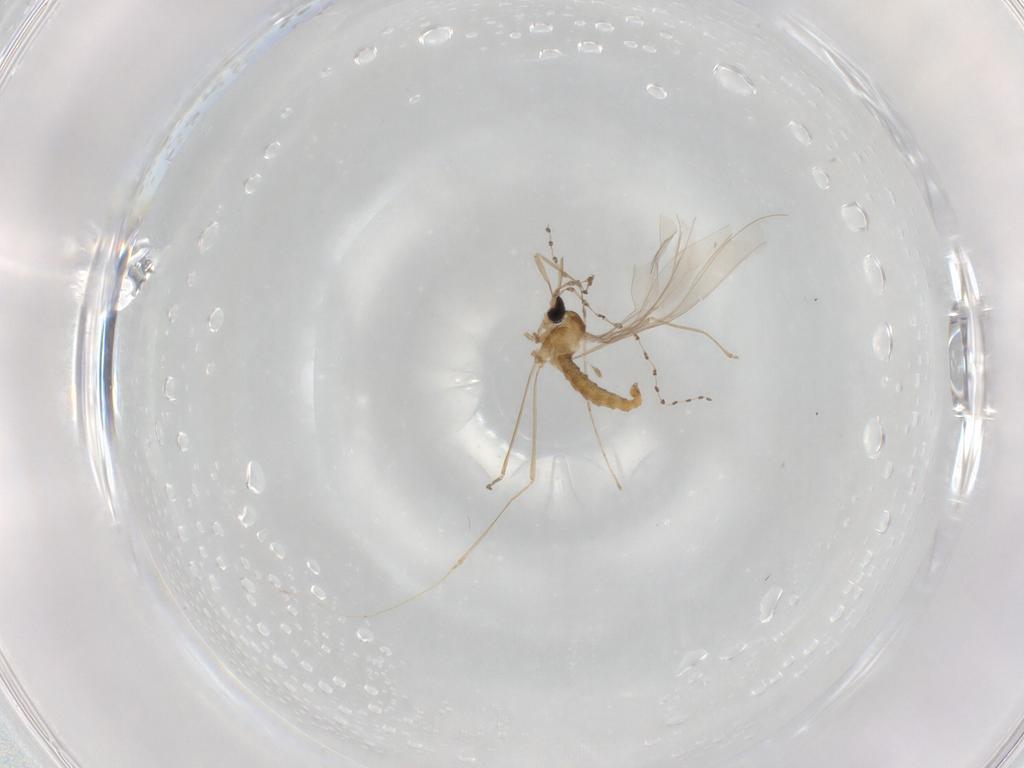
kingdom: Animalia
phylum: Arthropoda
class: Insecta
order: Diptera
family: Cecidomyiidae
